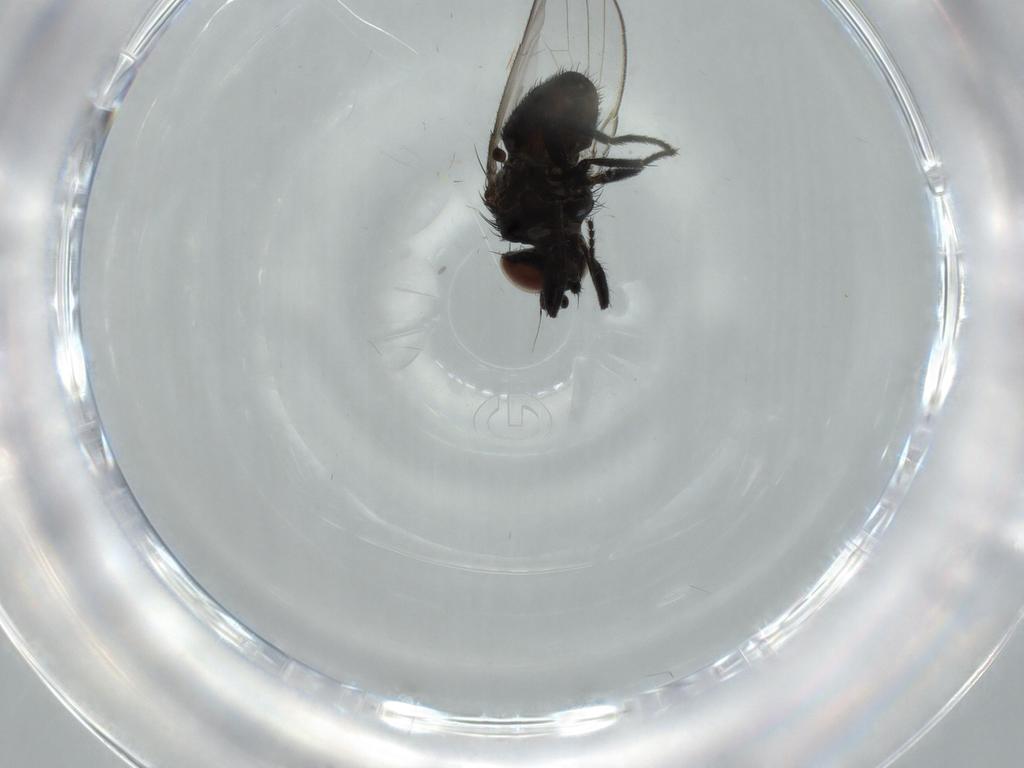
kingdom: Animalia
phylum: Arthropoda
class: Insecta
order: Diptera
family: Milichiidae
